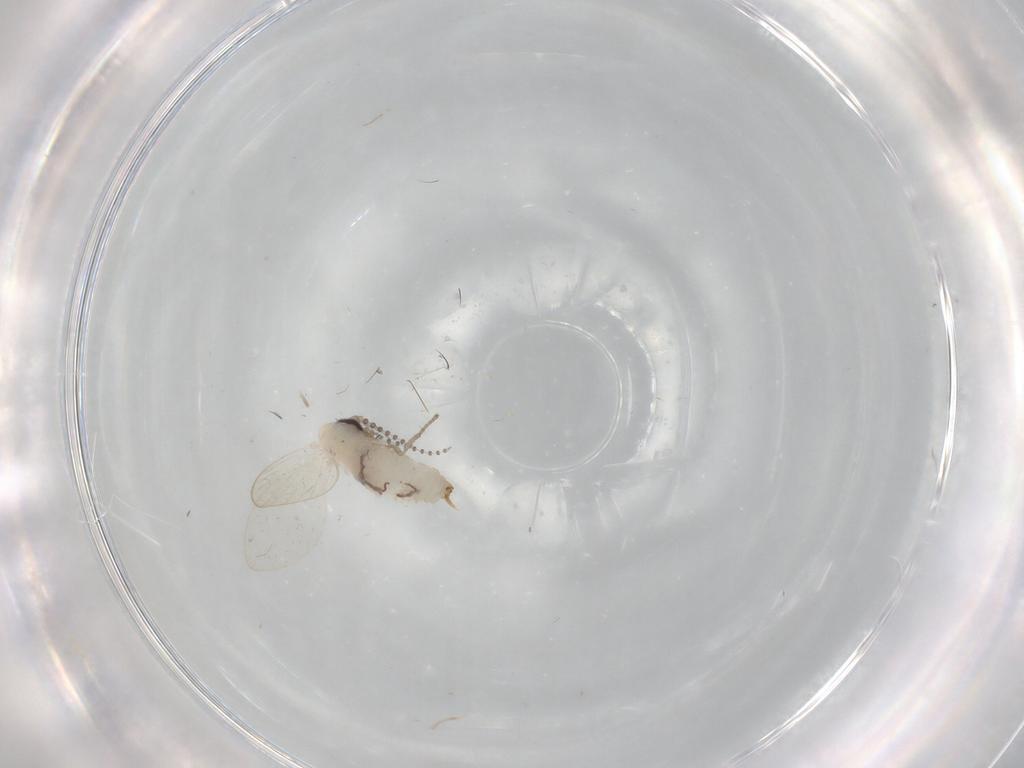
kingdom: Animalia
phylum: Arthropoda
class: Insecta
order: Diptera
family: Psychodidae
